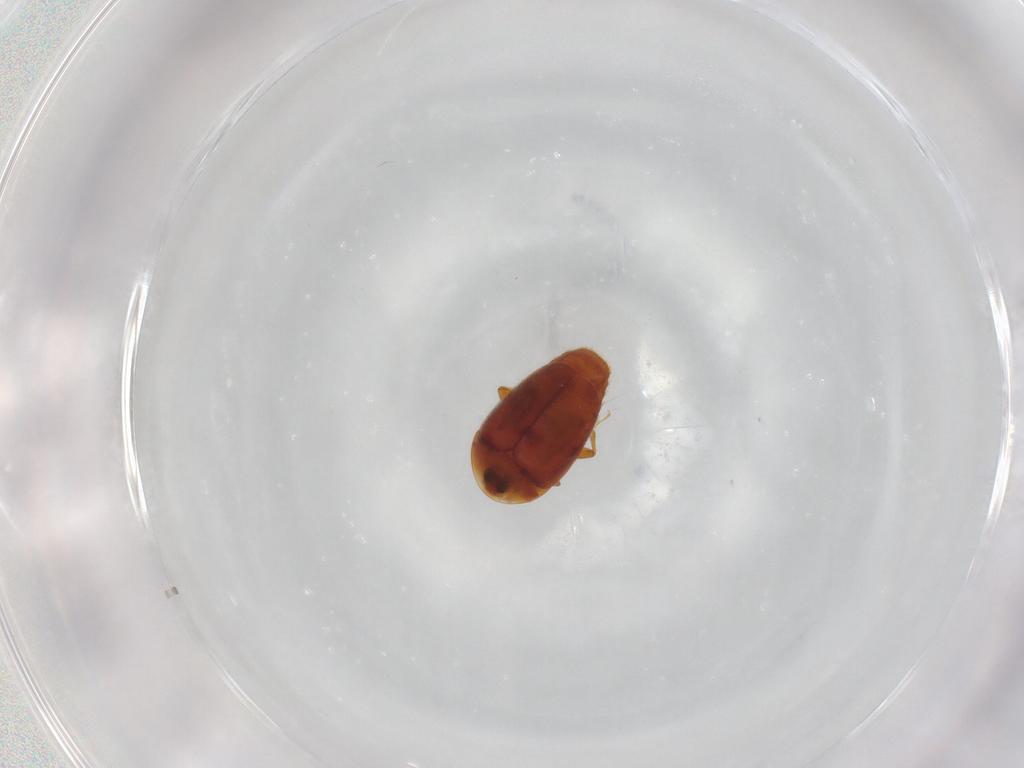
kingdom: Animalia
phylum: Arthropoda
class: Insecta
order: Coleoptera
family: Corylophidae
